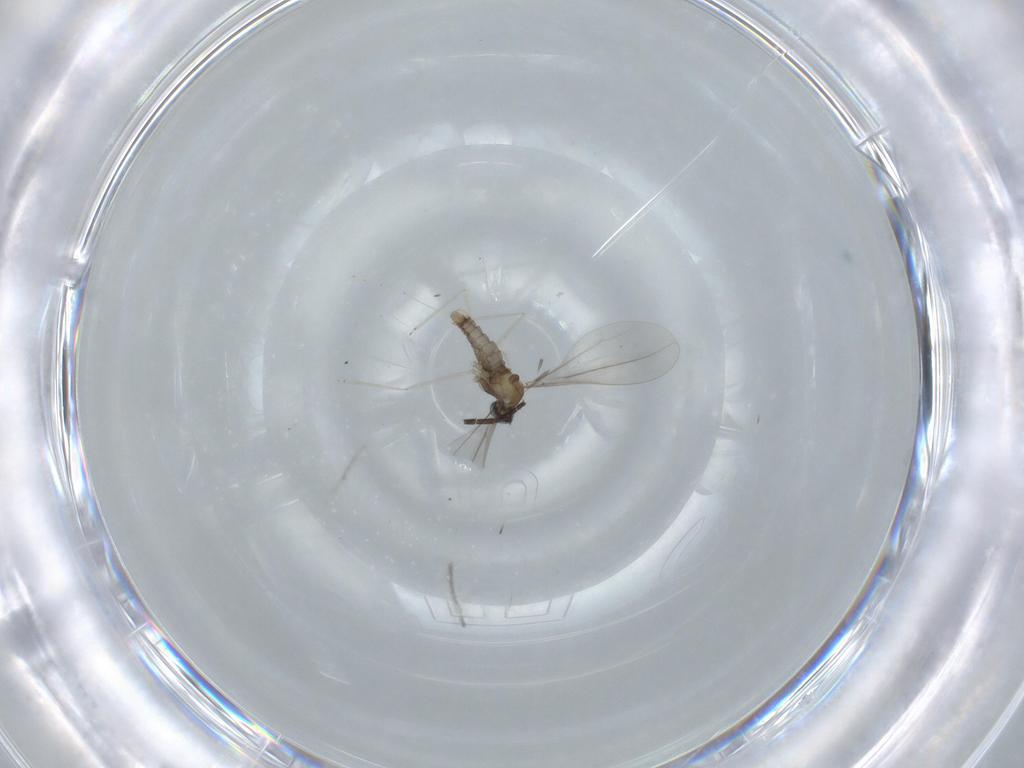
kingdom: Animalia
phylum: Arthropoda
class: Insecta
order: Diptera
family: Cecidomyiidae
